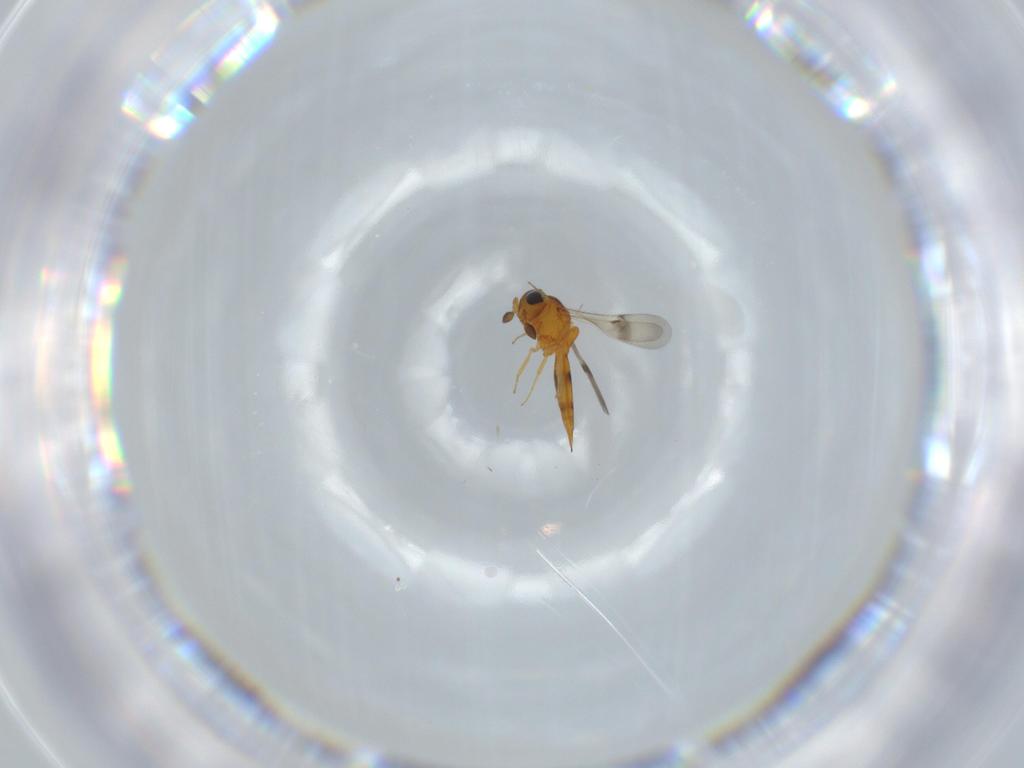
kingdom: Animalia
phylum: Arthropoda
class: Insecta
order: Hymenoptera
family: Scelionidae
